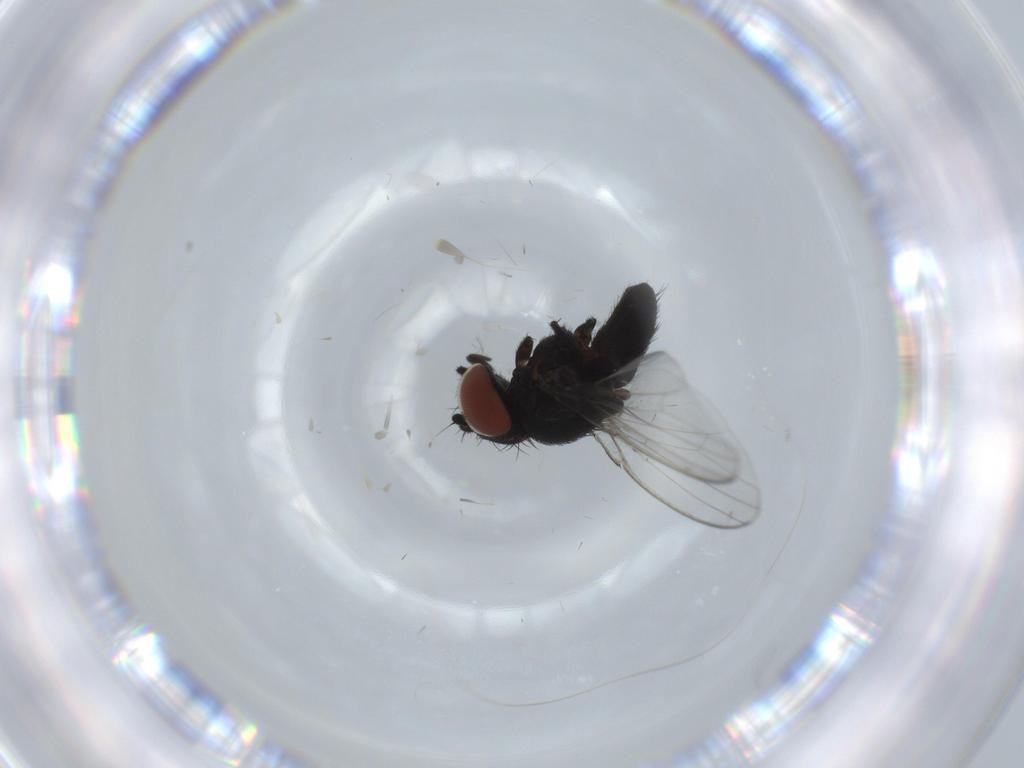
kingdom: Animalia
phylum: Arthropoda
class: Insecta
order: Diptera
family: Milichiidae
